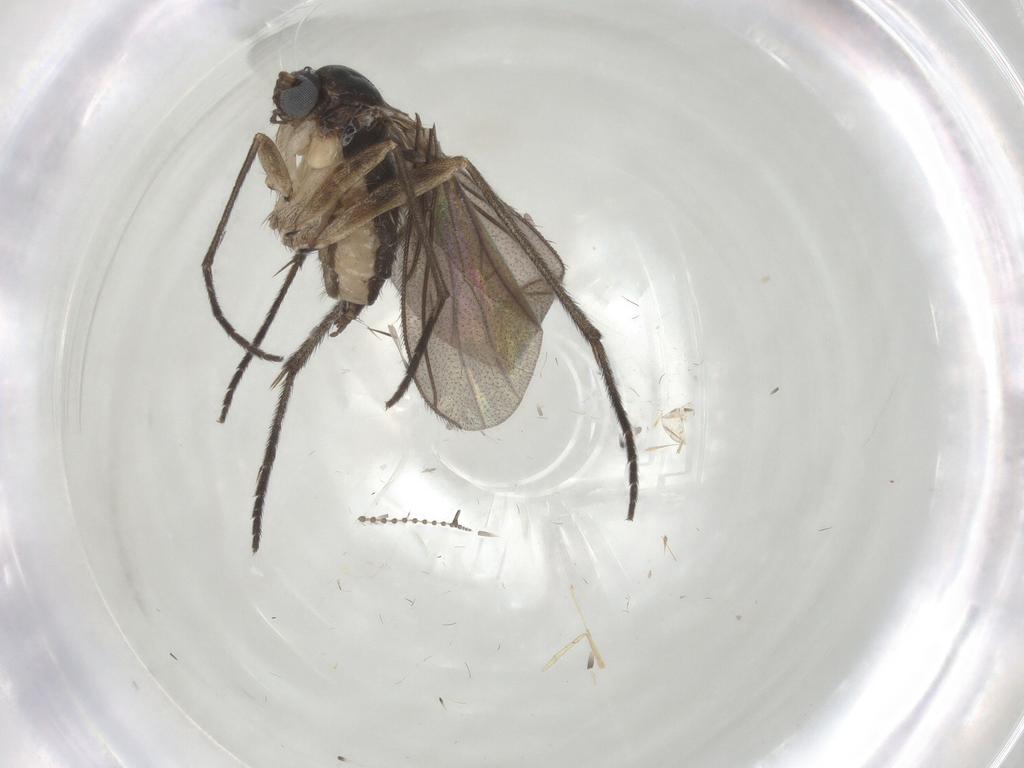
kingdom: Animalia
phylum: Arthropoda
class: Insecta
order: Diptera
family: Sciaridae
